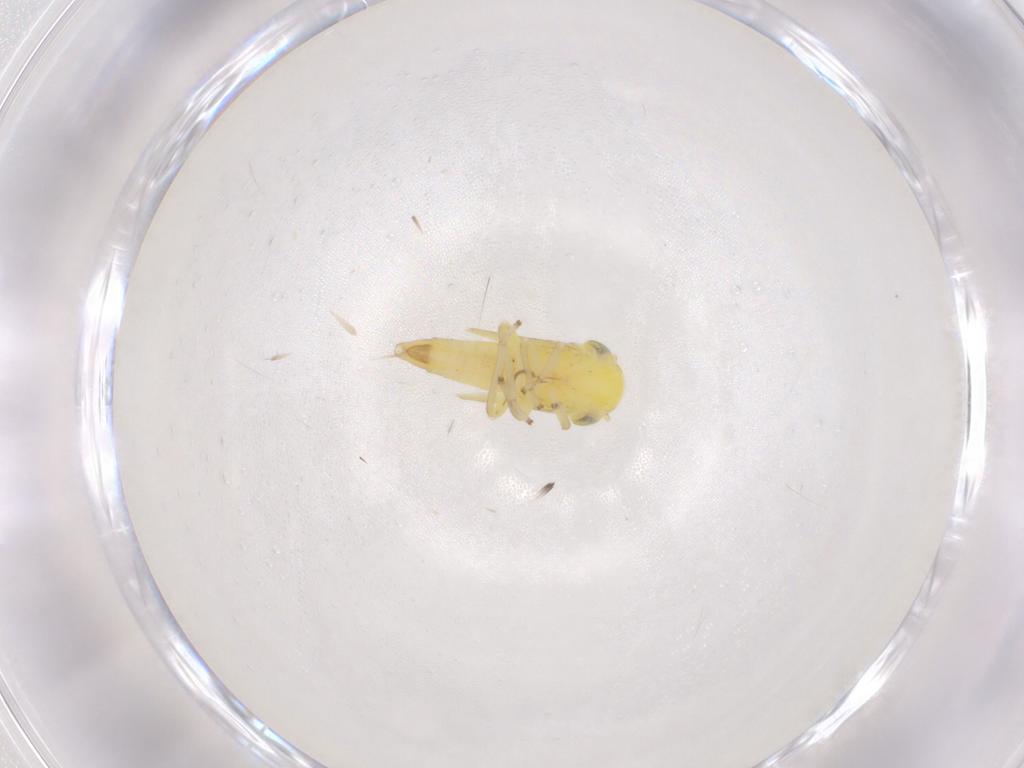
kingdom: Animalia
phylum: Arthropoda
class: Insecta
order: Hemiptera
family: Cicadellidae
